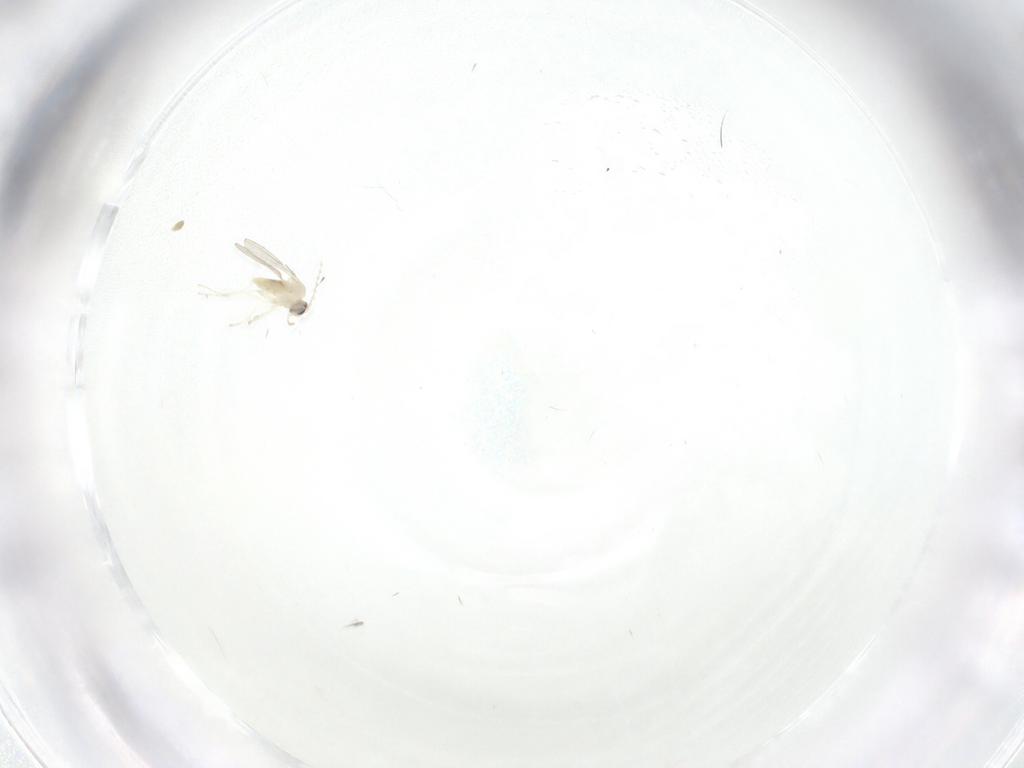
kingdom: Animalia
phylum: Arthropoda
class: Insecta
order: Diptera
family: Cecidomyiidae
